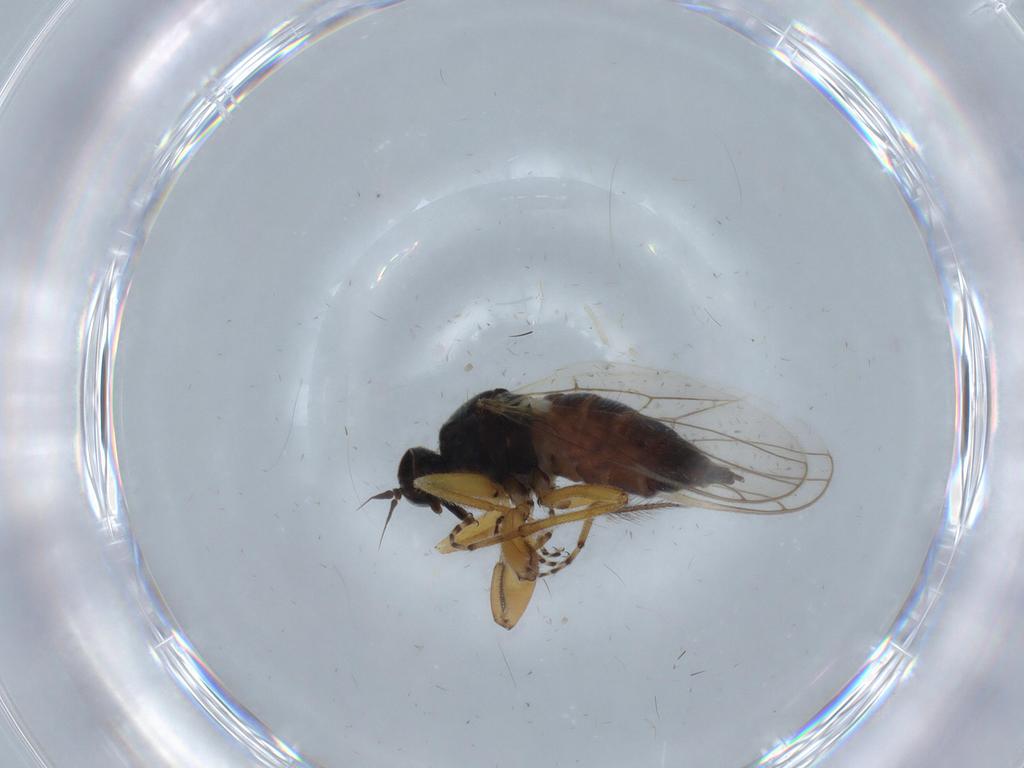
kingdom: Animalia
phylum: Arthropoda
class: Insecta
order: Diptera
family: Hybotidae
